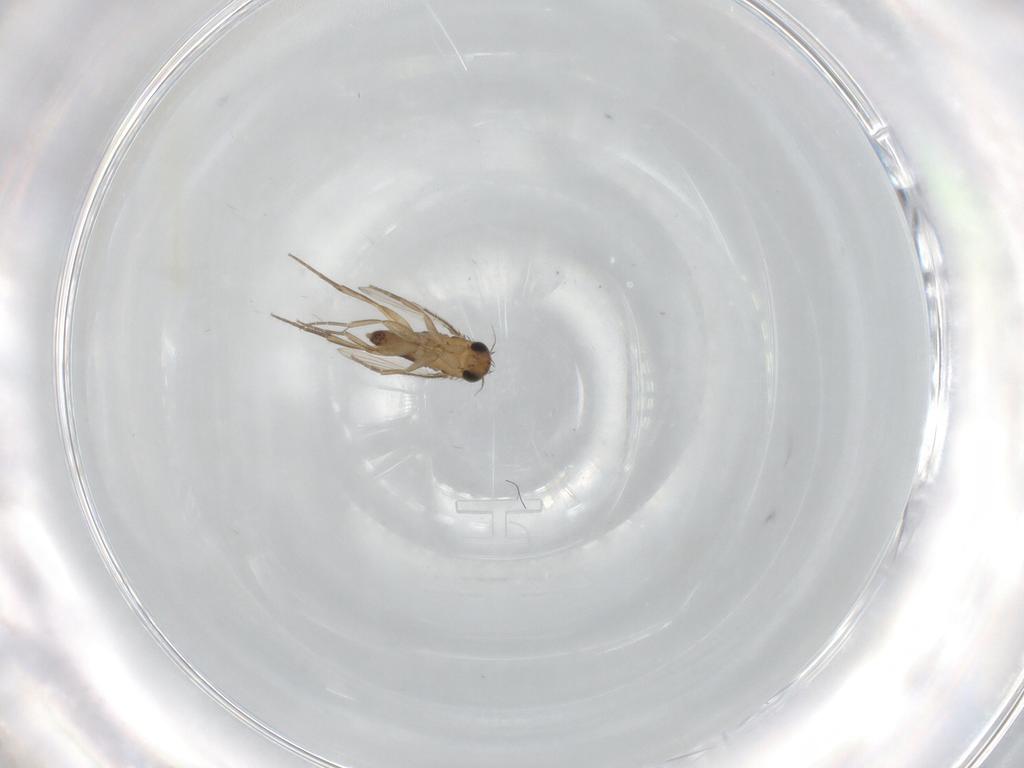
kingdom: Animalia
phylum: Arthropoda
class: Insecta
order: Diptera
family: Phoridae
